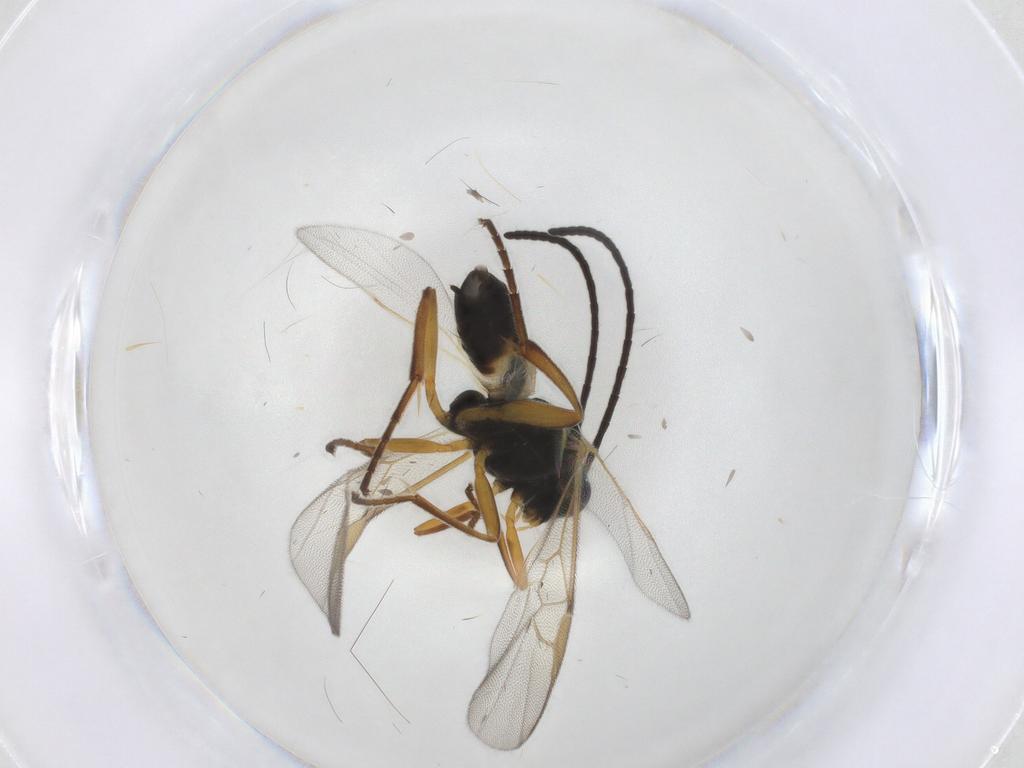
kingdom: Animalia
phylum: Arthropoda
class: Insecta
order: Hymenoptera
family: Braconidae
